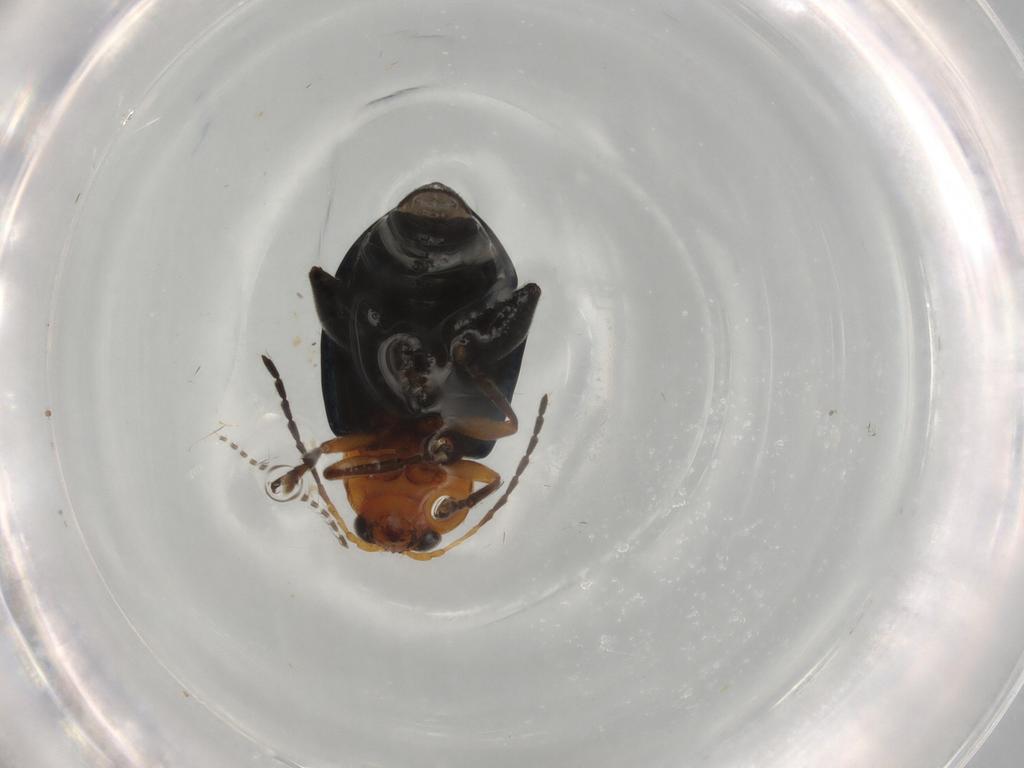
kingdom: Animalia
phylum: Arthropoda
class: Insecta
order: Coleoptera
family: Chrysomelidae
